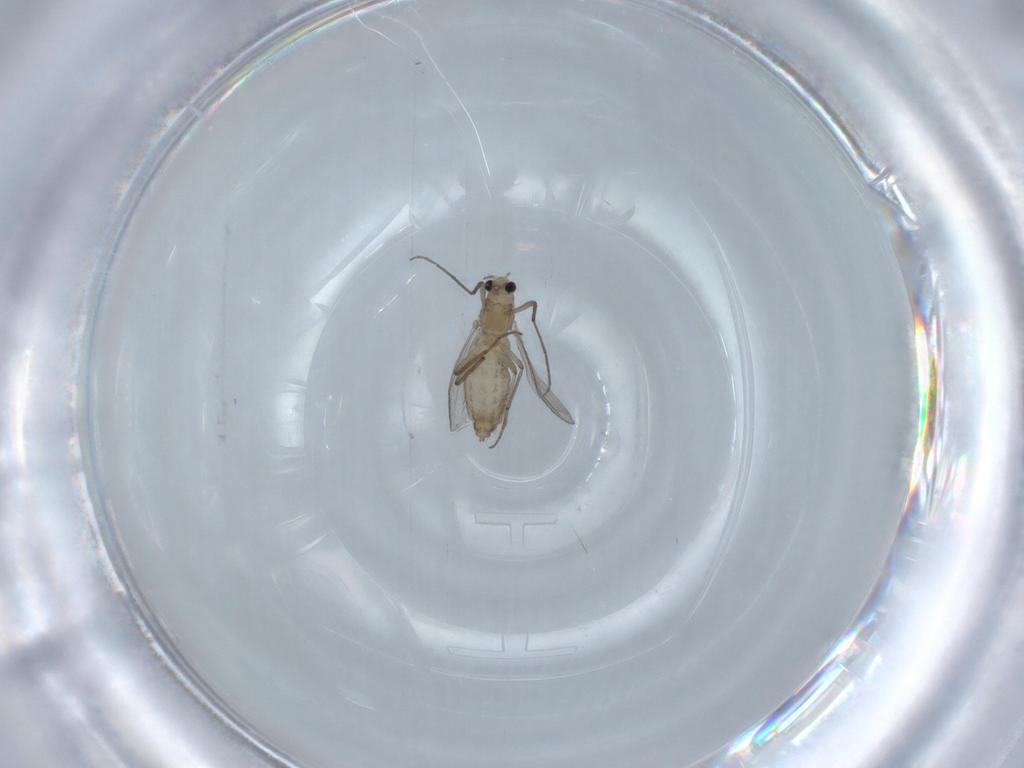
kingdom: Animalia
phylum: Arthropoda
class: Insecta
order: Diptera
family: Chironomidae
